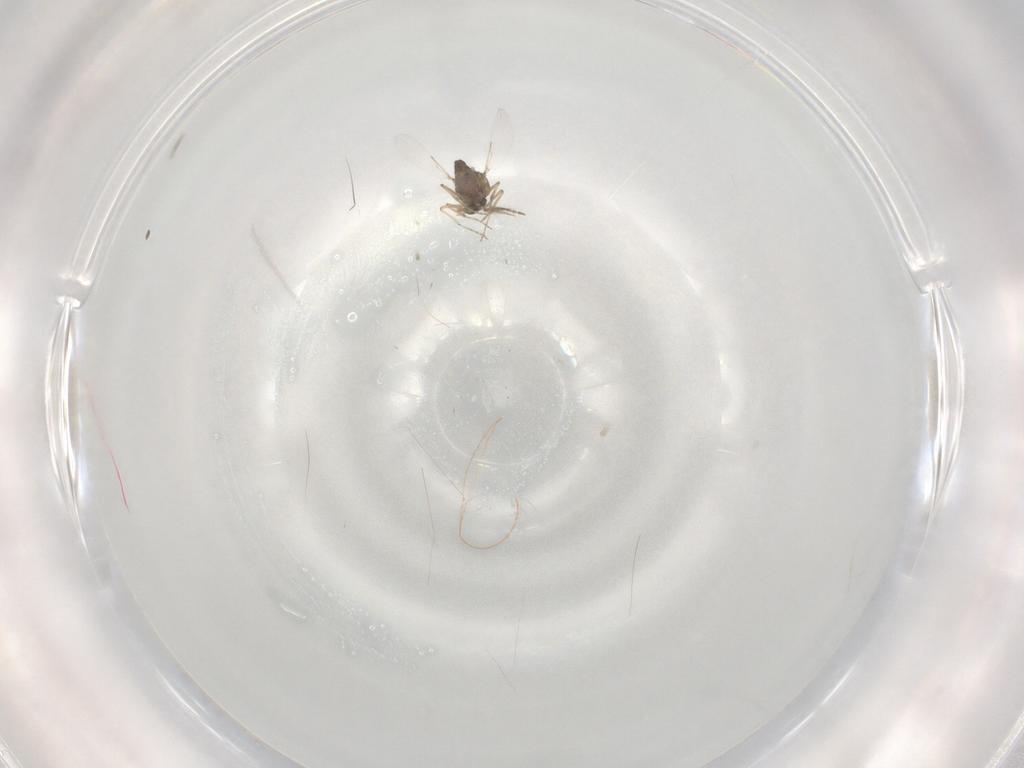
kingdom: Animalia
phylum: Arthropoda
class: Insecta
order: Diptera
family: Ceratopogonidae
